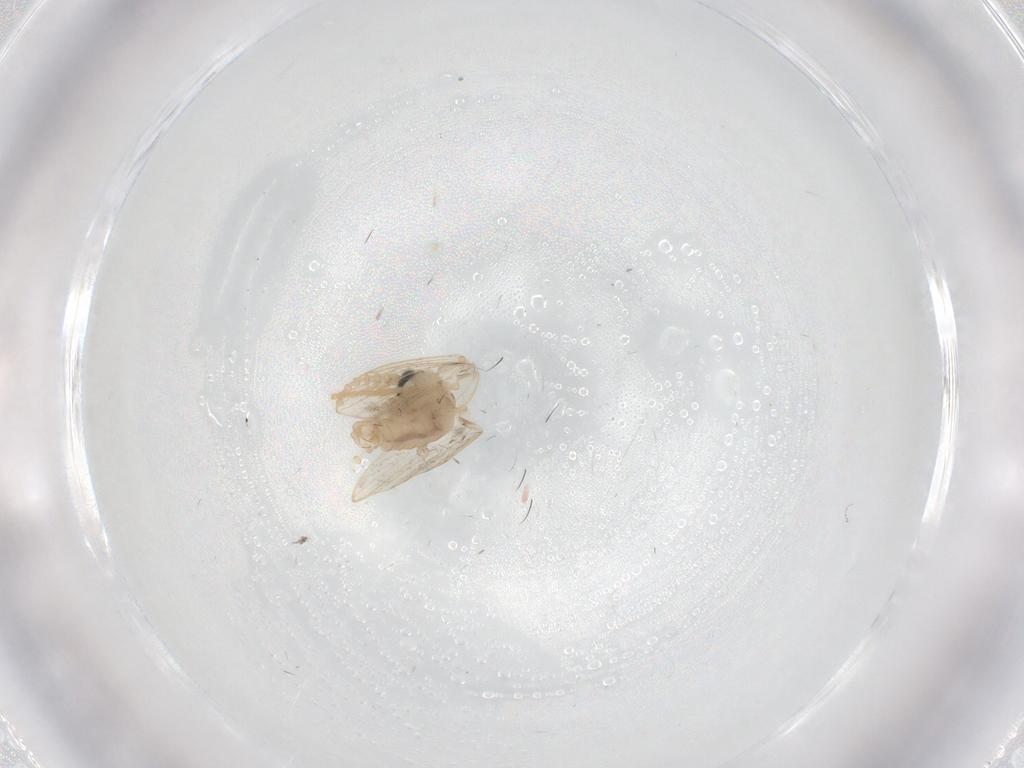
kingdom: Animalia
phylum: Arthropoda
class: Insecta
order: Diptera
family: Cecidomyiidae
